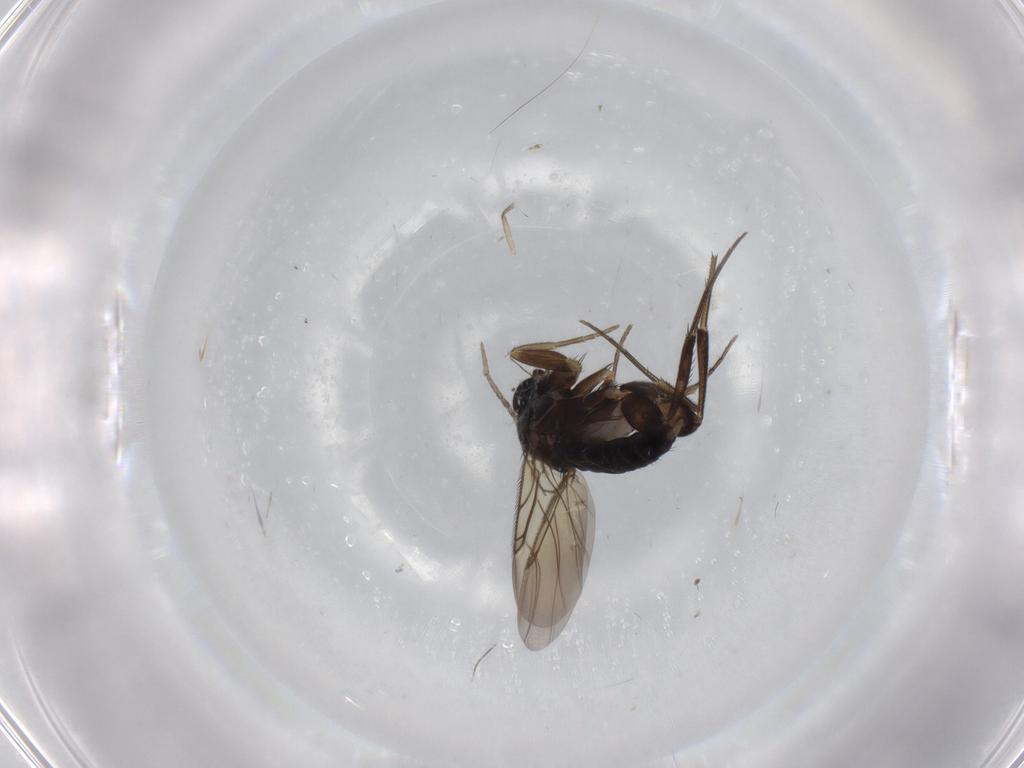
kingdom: Animalia
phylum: Arthropoda
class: Insecta
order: Diptera
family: Phoridae
